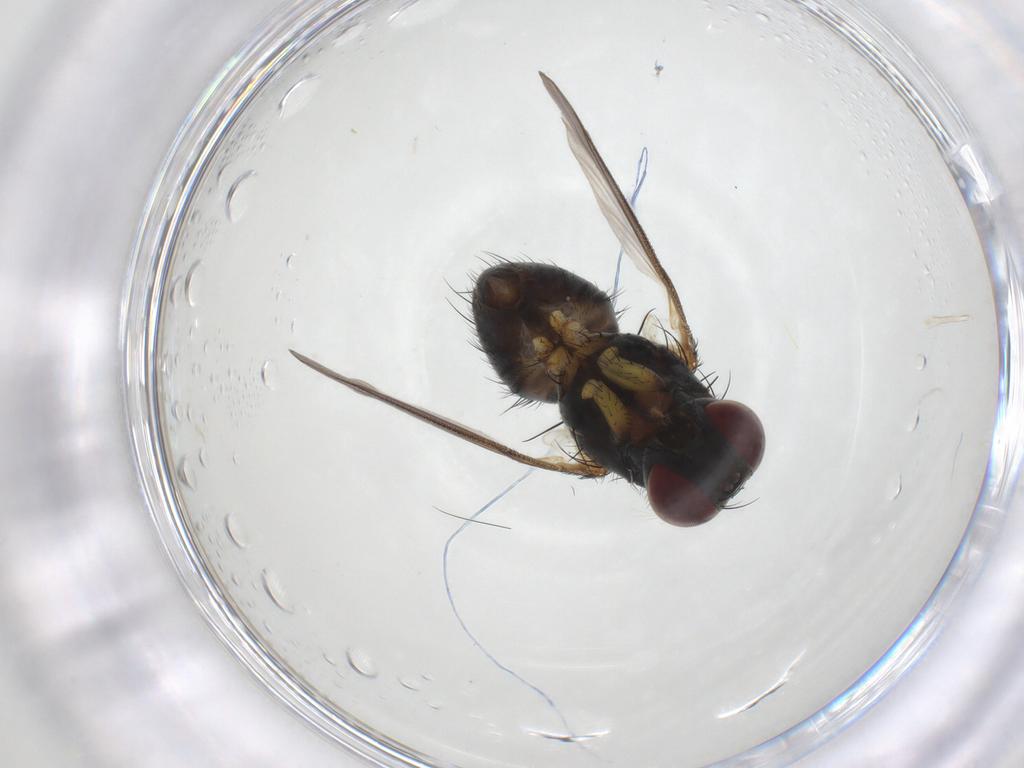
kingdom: Animalia
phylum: Arthropoda
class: Insecta
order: Diptera
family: Muscidae
